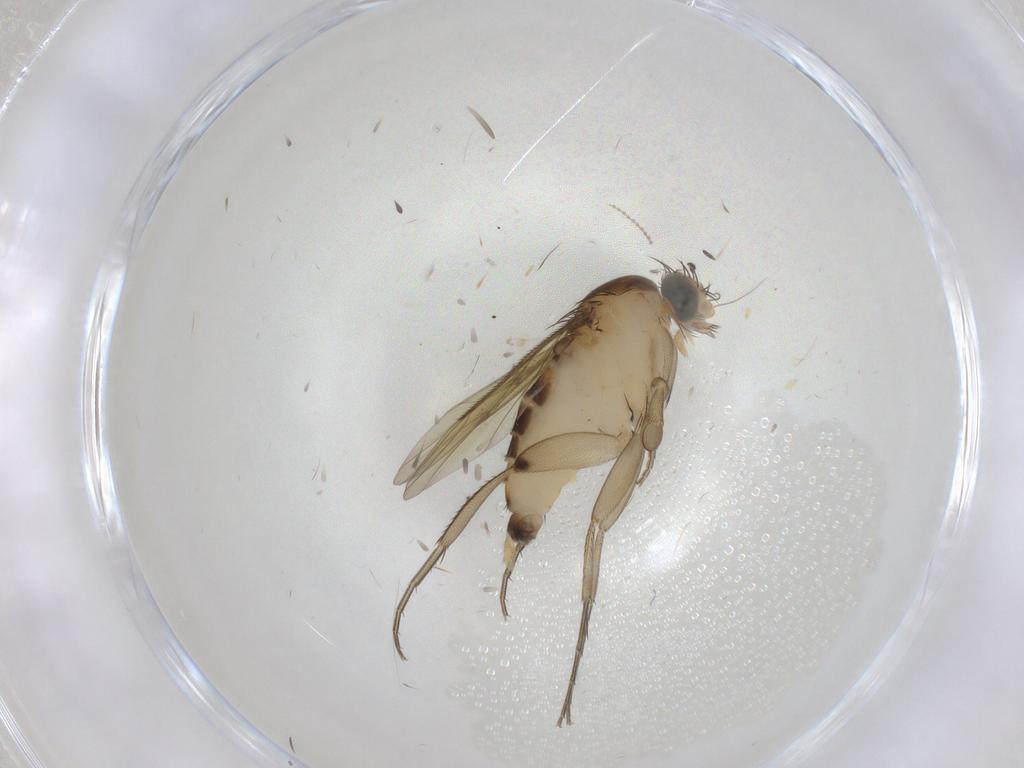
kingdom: Animalia
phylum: Arthropoda
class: Insecta
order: Diptera
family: Phoridae
